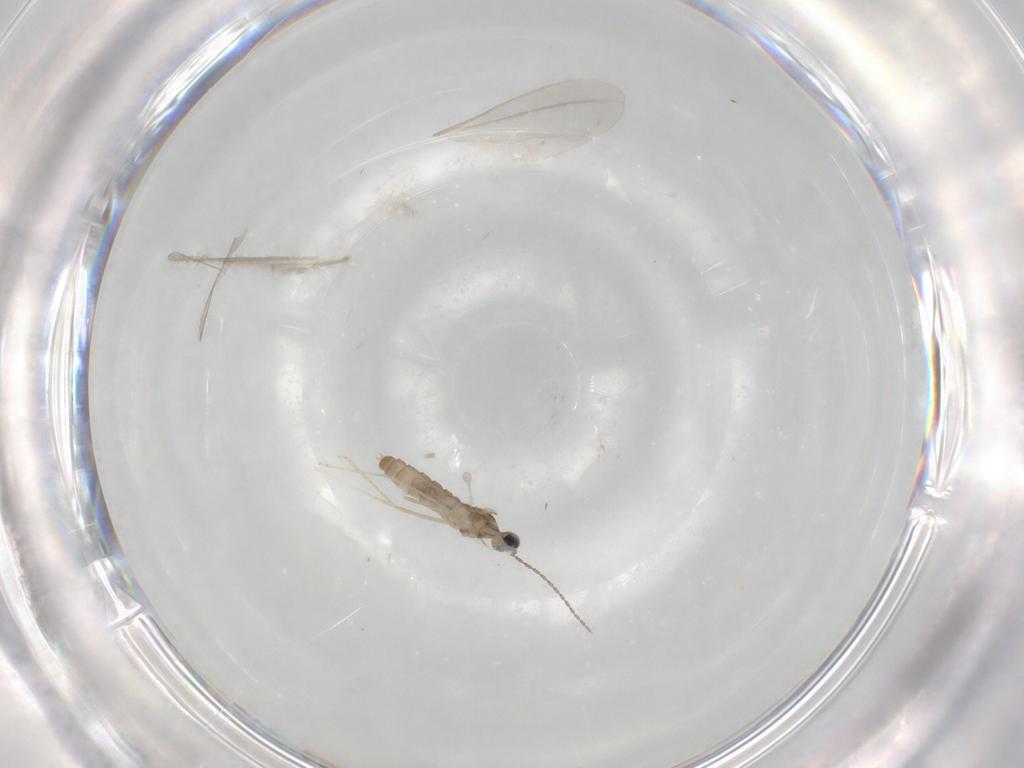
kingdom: Animalia
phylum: Arthropoda
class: Insecta
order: Diptera
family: Cecidomyiidae
